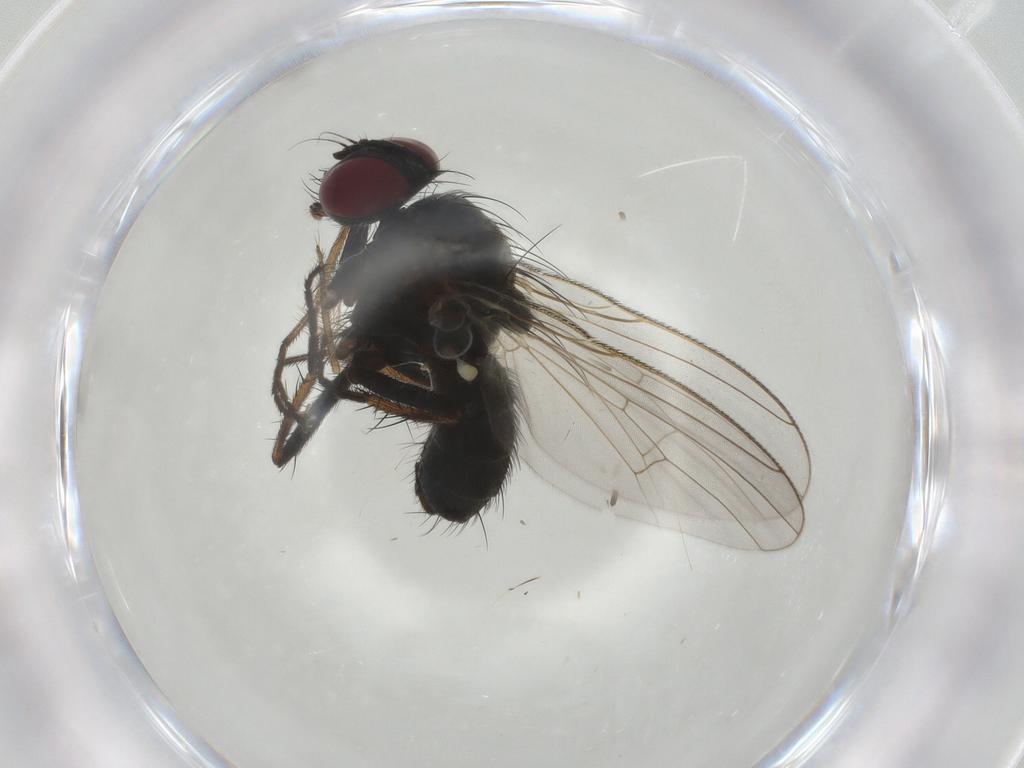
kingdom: Animalia
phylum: Arthropoda
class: Insecta
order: Diptera
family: Muscidae
